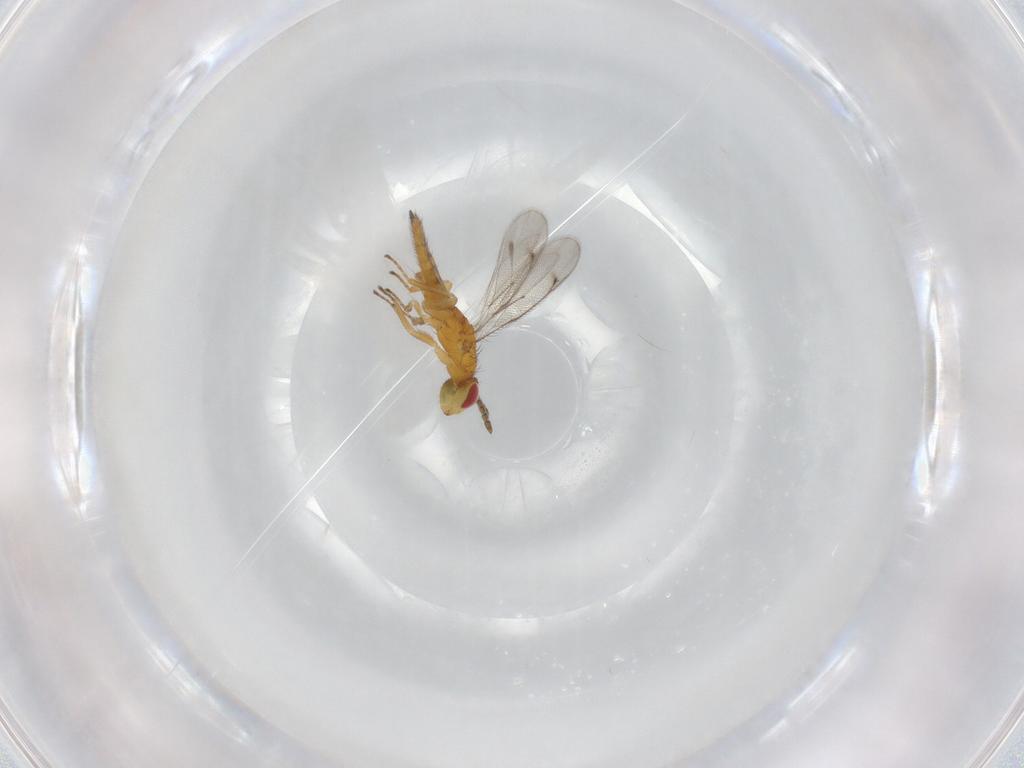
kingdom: Animalia
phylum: Arthropoda
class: Insecta
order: Hymenoptera
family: Eulophidae
